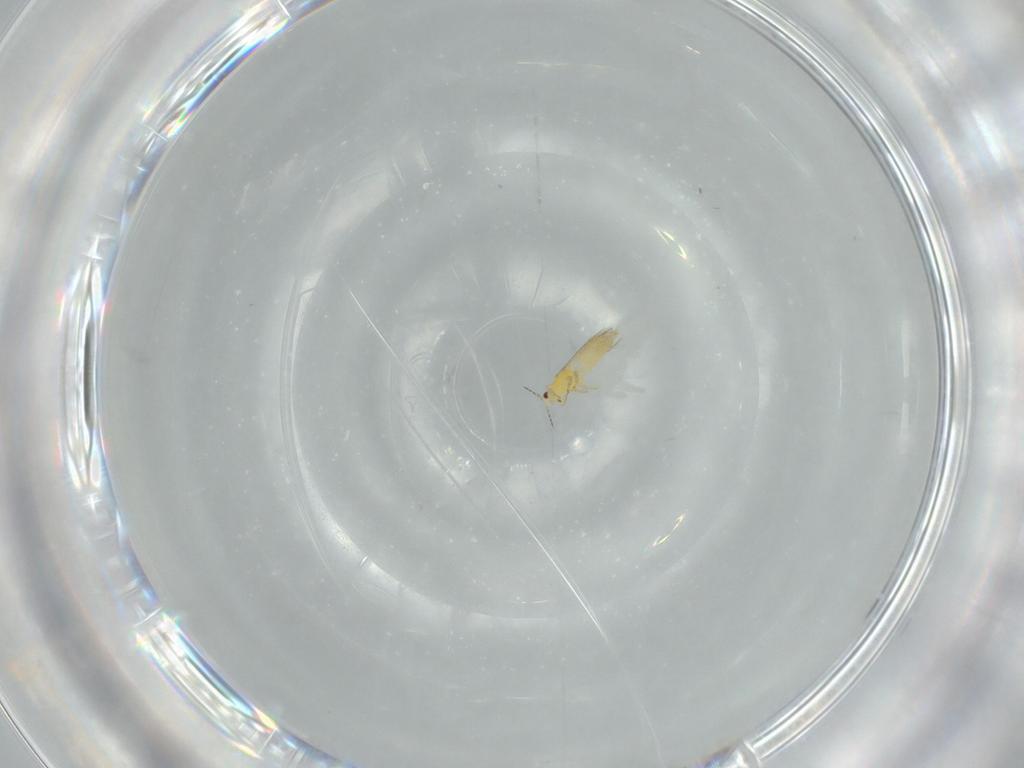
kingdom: Animalia
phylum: Arthropoda
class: Insecta
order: Thysanoptera
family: Thripidae
